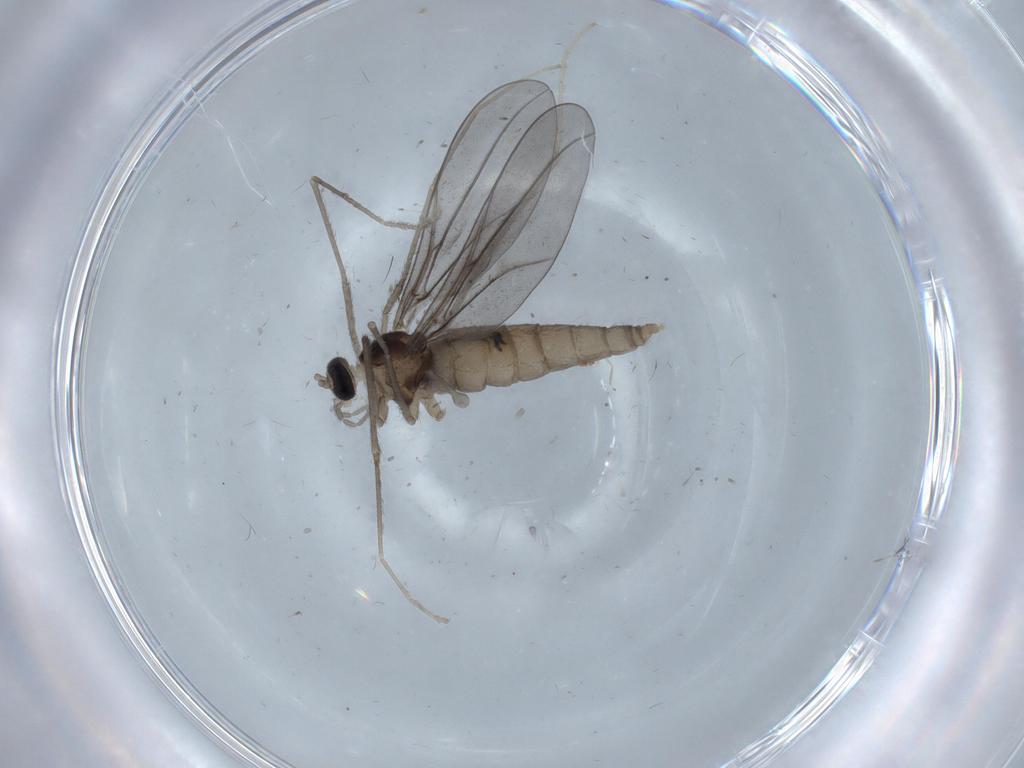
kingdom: Animalia
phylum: Arthropoda
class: Insecta
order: Diptera
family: Cecidomyiidae
